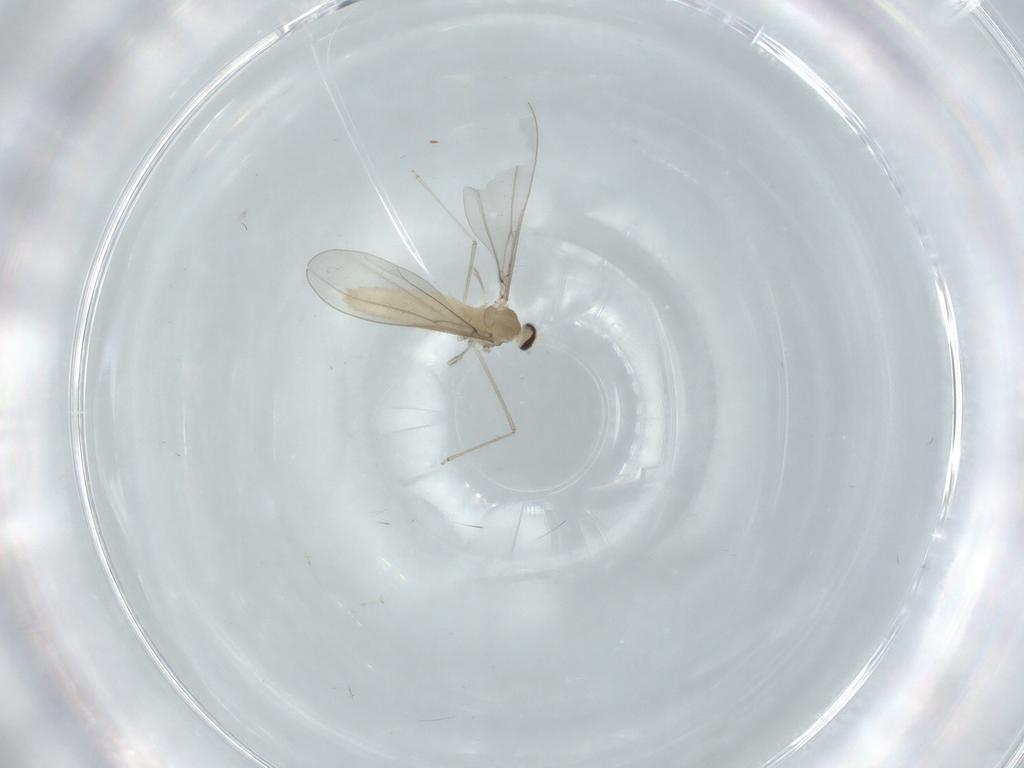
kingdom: Animalia
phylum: Arthropoda
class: Insecta
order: Diptera
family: Cecidomyiidae
